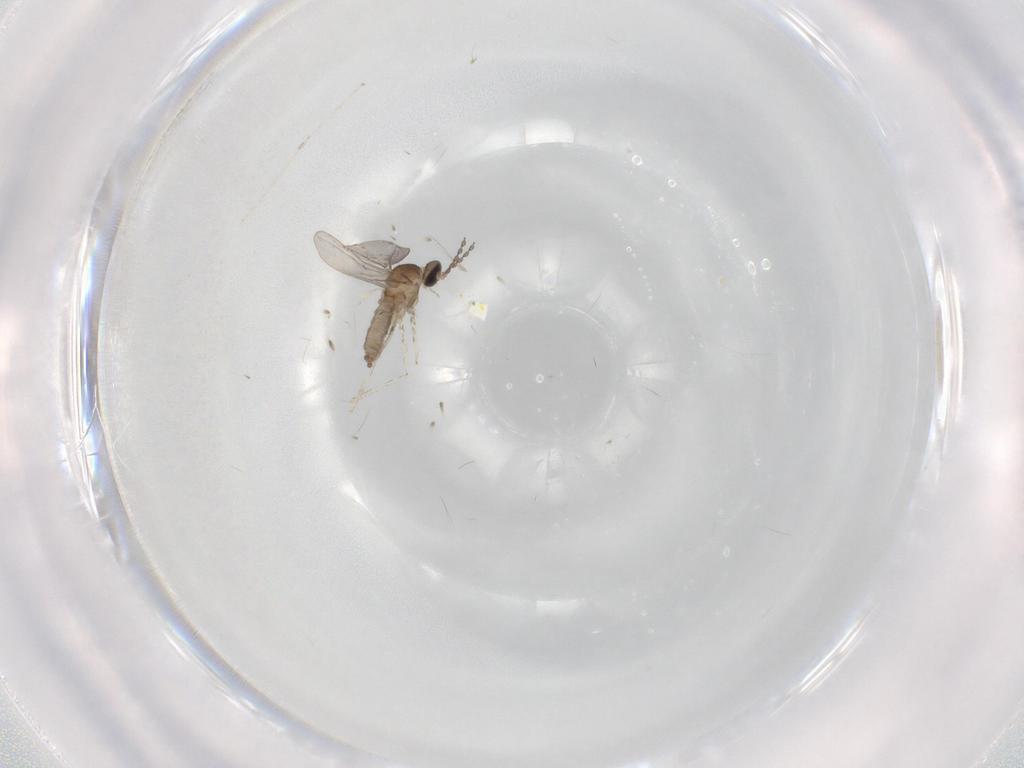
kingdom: Animalia
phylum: Arthropoda
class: Insecta
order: Diptera
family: Cecidomyiidae
